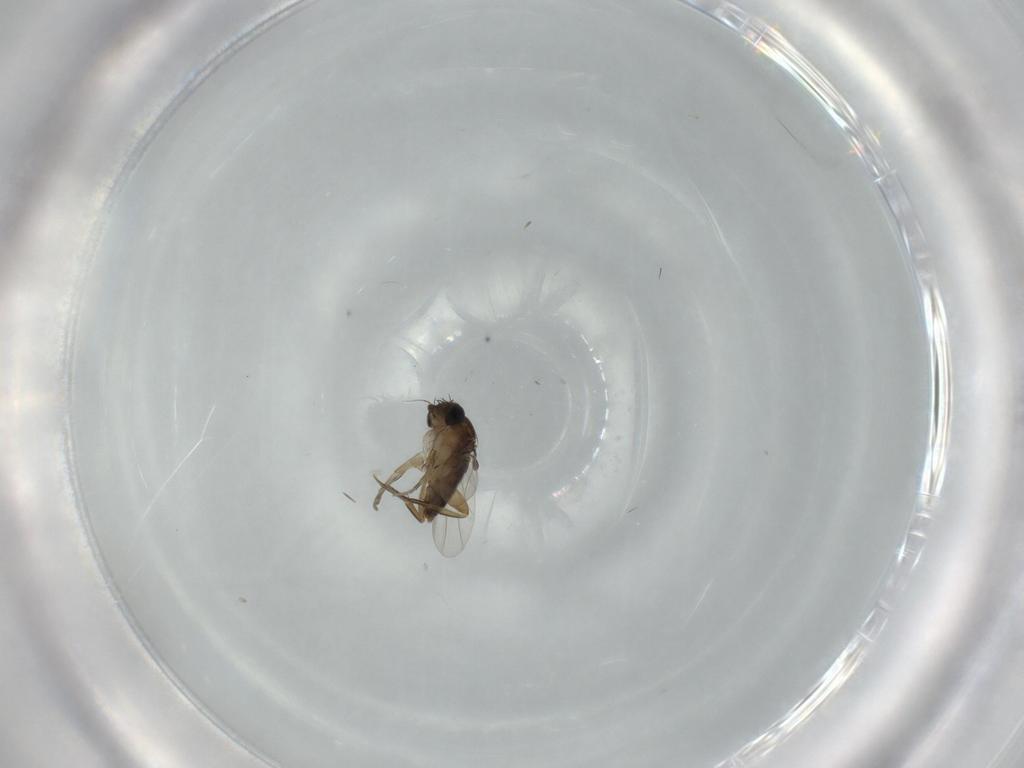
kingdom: Animalia
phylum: Arthropoda
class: Insecta
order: Diptera
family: Phoridae
